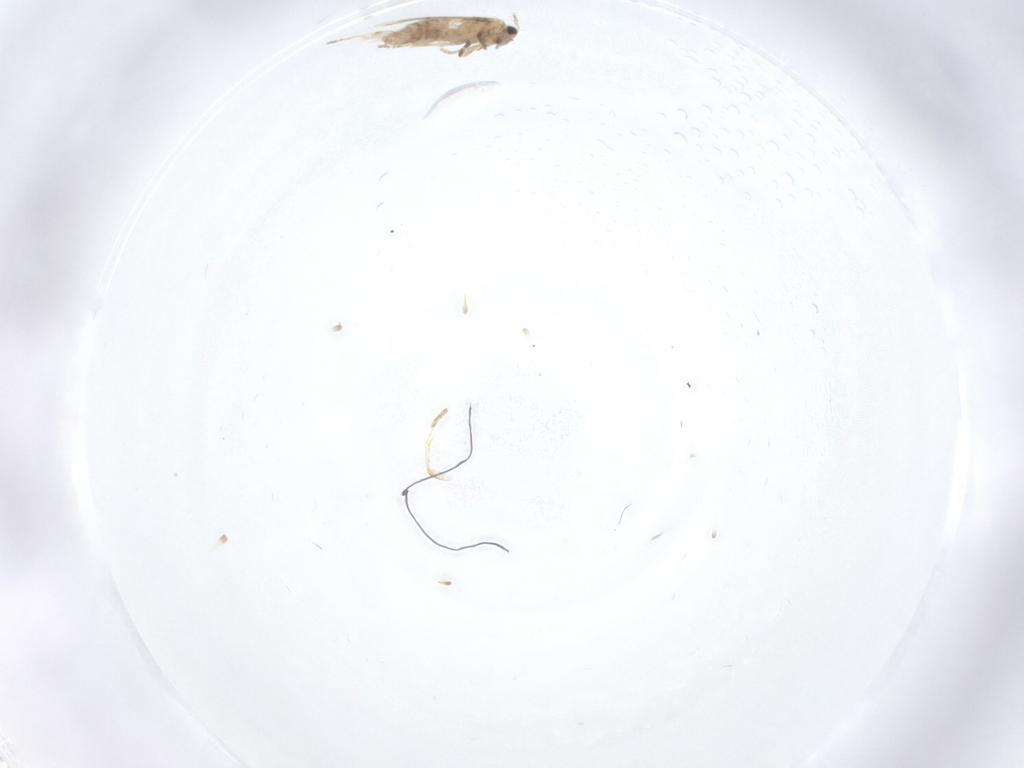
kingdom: Animalia
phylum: Arthropoda
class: Insecta
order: Lepidoptera
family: Nepticulidae
